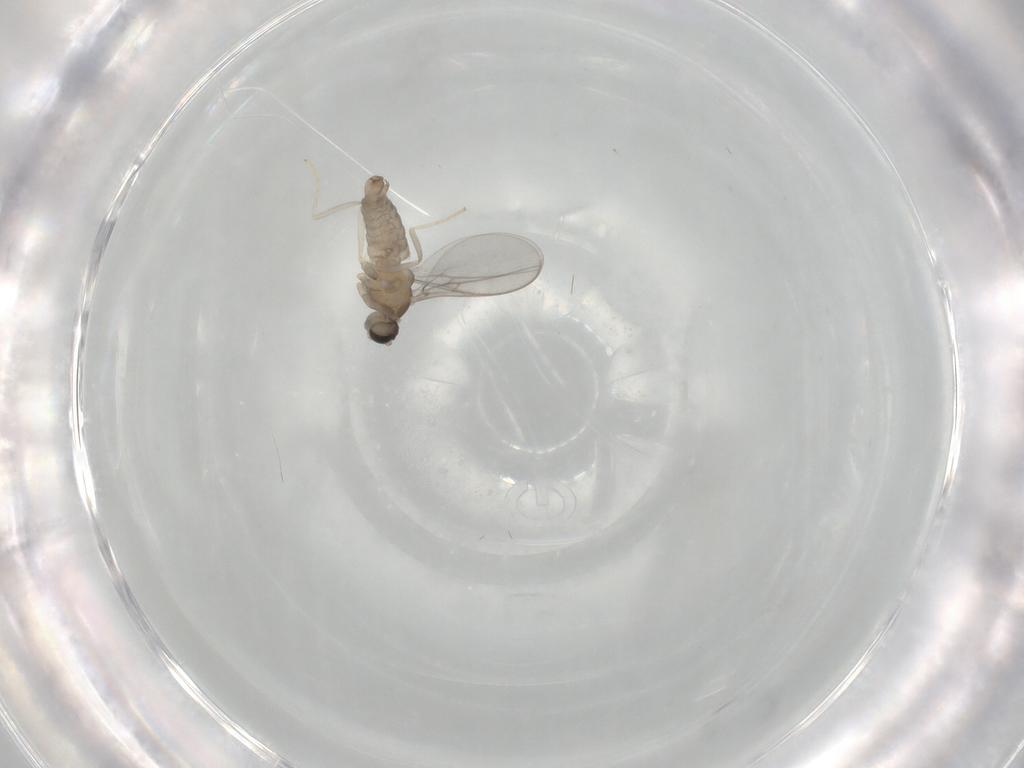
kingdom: Animalia
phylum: Arthropoda
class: Insecta
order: Diptera
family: Cecidomyiidae
